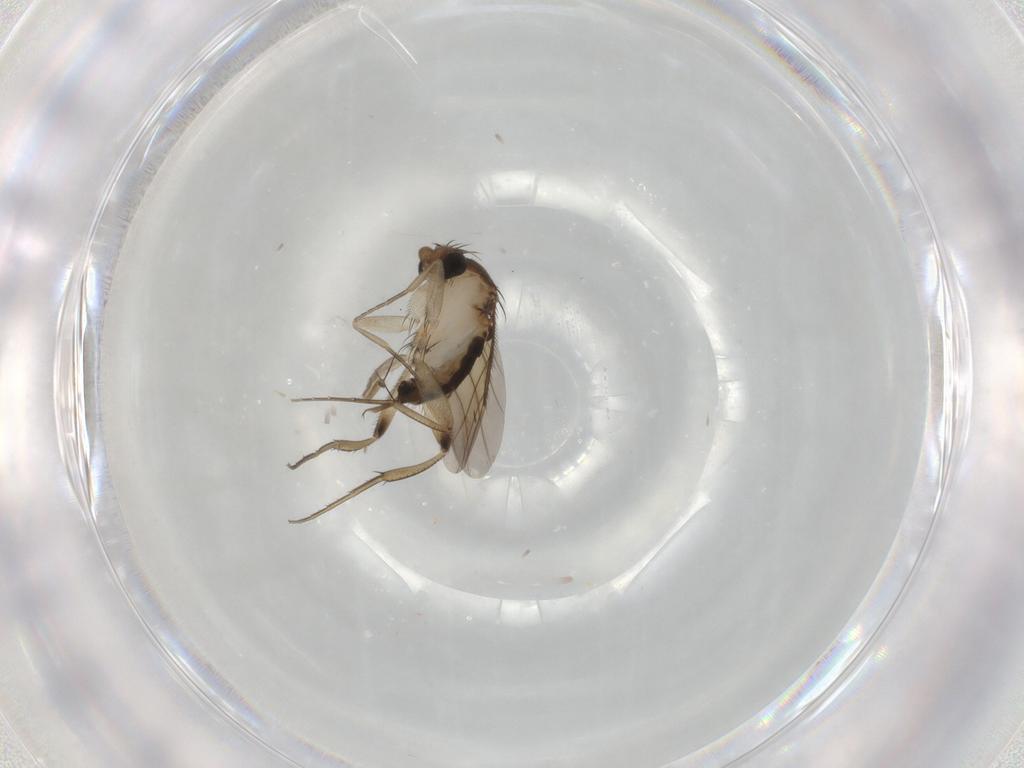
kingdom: Animalia
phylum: Arthropoda
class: Insecta
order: Diptera
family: Phoridae
